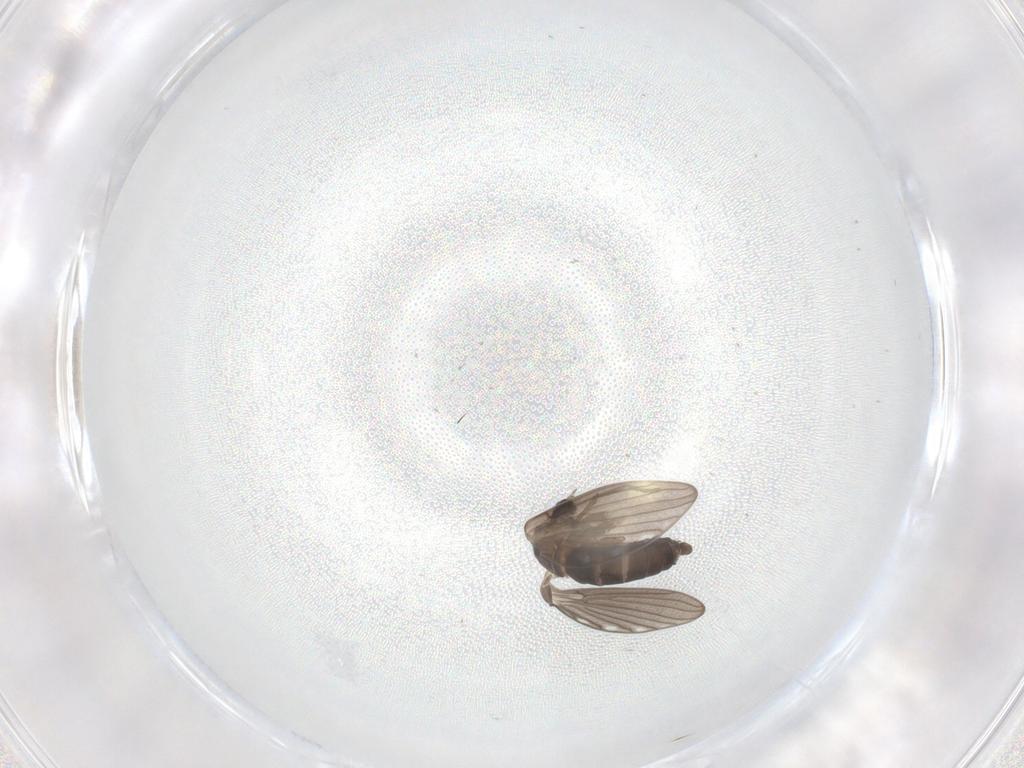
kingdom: Animalia
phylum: Arthropoda
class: Insecta
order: Diptera
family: Psychodidae
